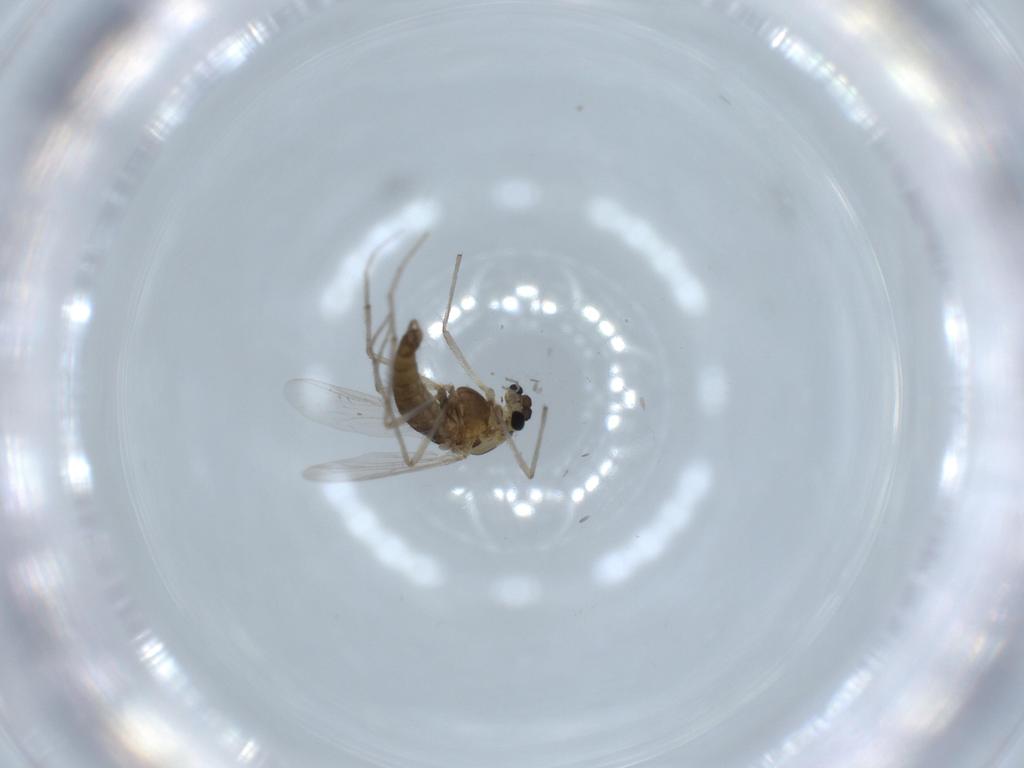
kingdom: Animalia
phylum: Arthropoda
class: Insecta
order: Diptera
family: Chironomidae
